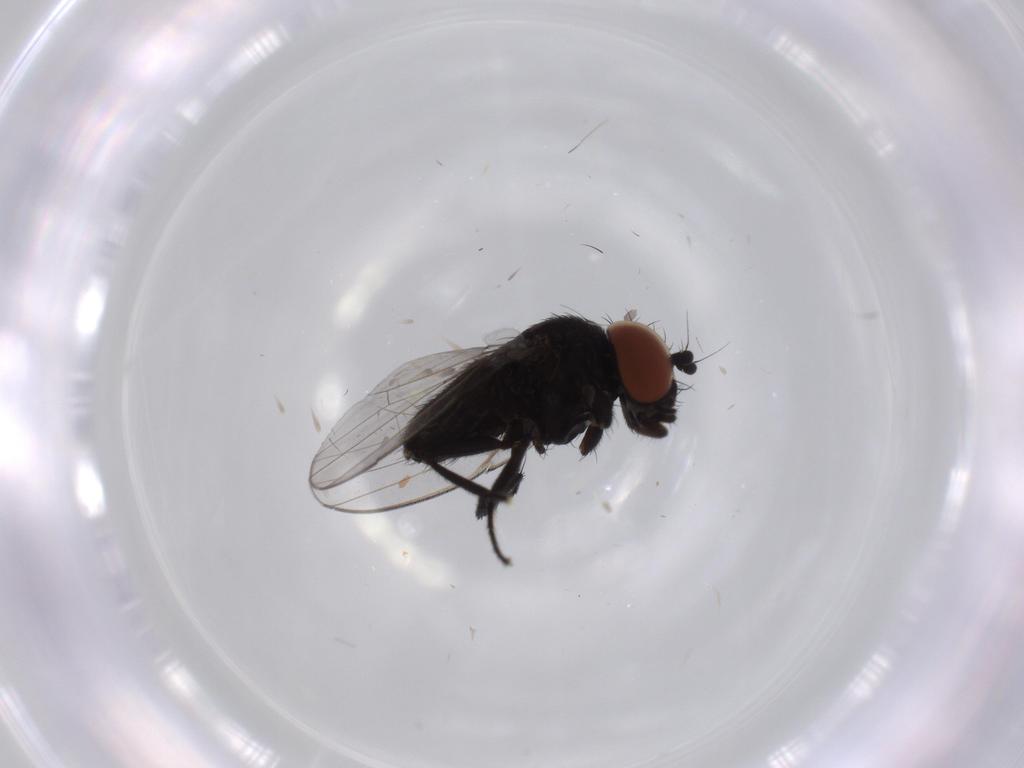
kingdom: Animalia
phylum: Arthropoda
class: Insecta
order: Diptera
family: Milichiidae
